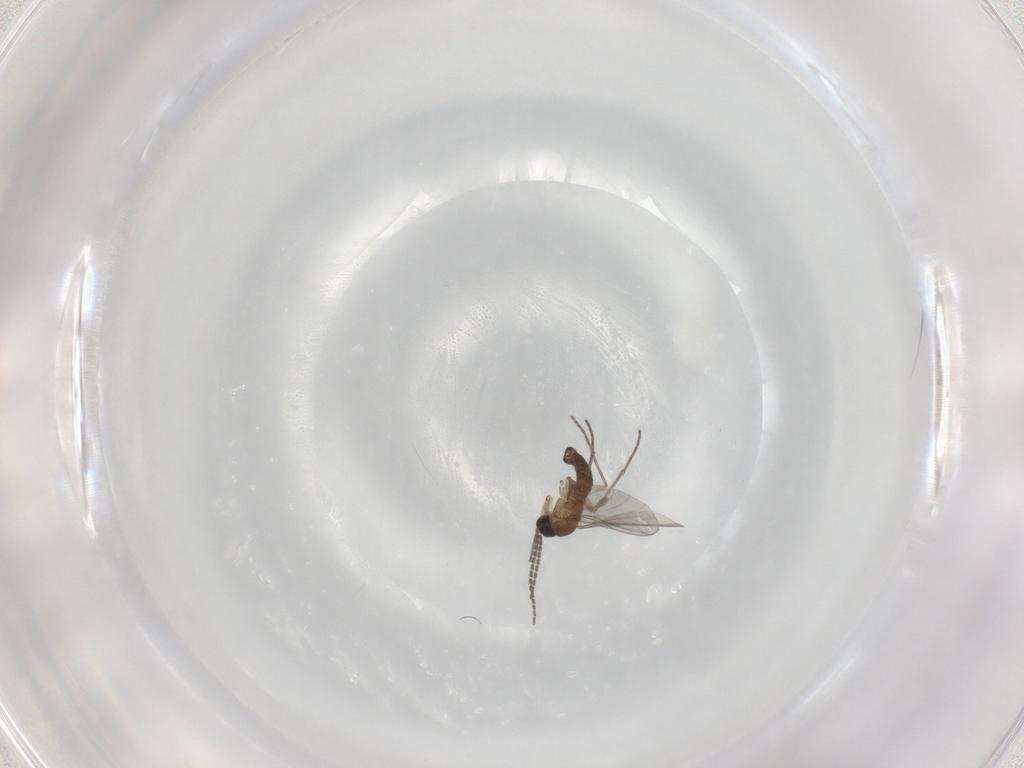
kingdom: Animalia
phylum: Arthropoda
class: Insecta
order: Diptera
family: Sciaridae
